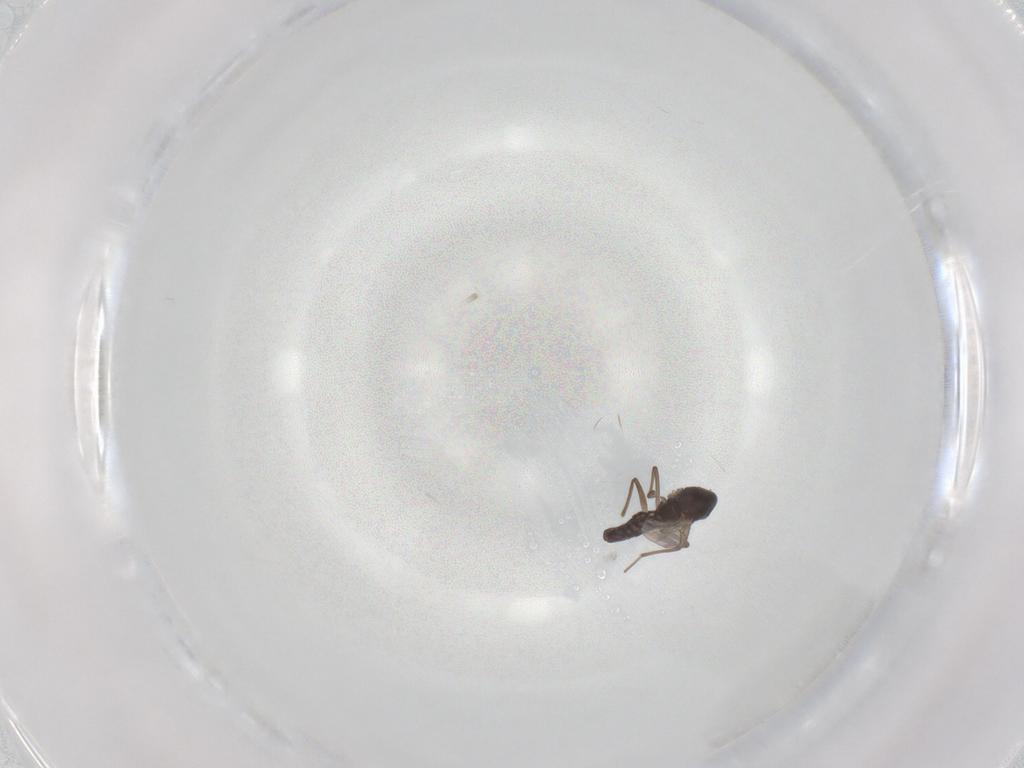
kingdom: Animalia
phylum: Arthropoda
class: Insecta
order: Diptera
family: Chironomidae
